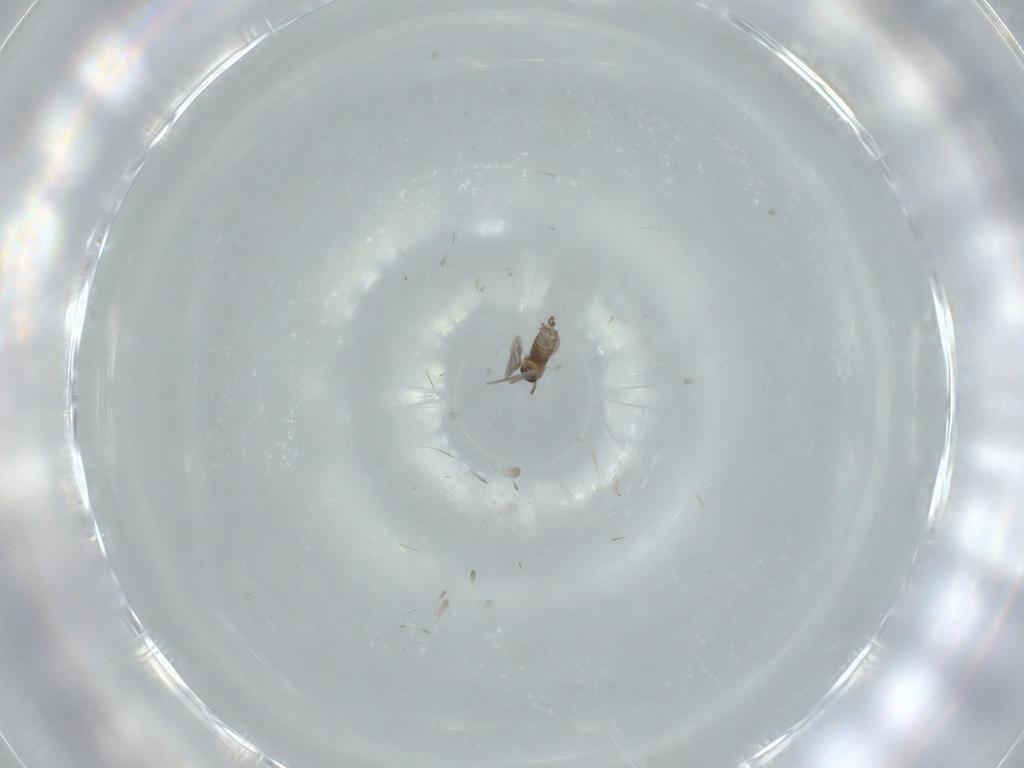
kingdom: Animalia
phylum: Arthropoda
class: Insecta
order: Diptera
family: Cecidomyiidae
